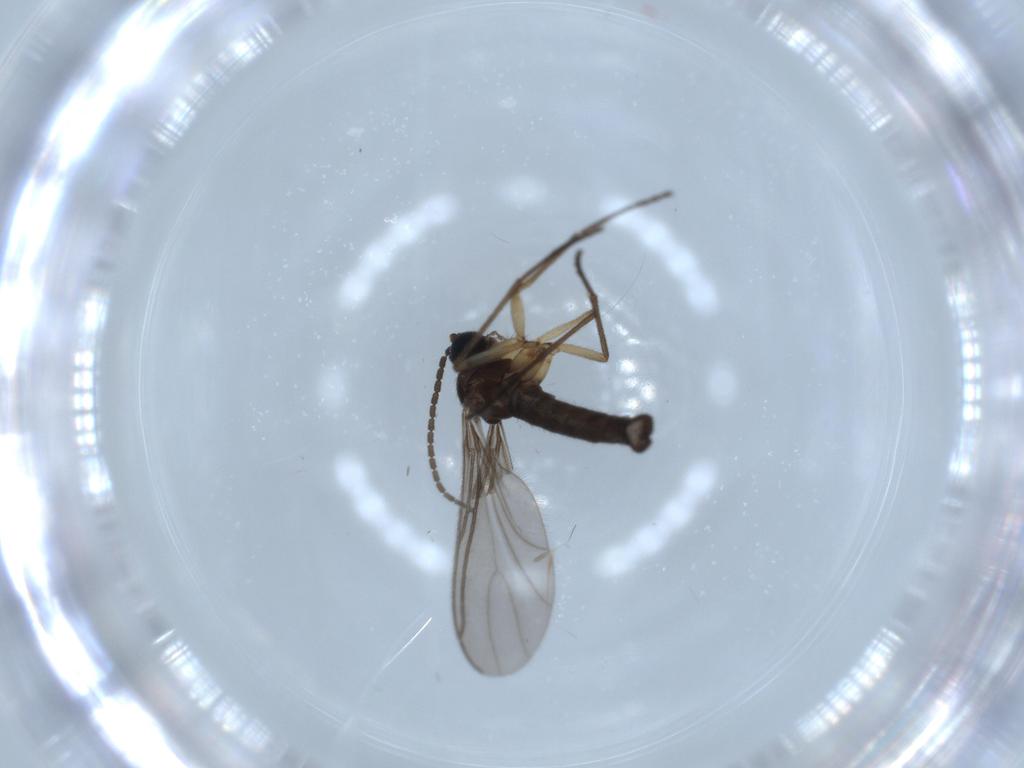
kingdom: Animalia
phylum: Arthropoda
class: Insecta
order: Diptera
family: Sciaridae
